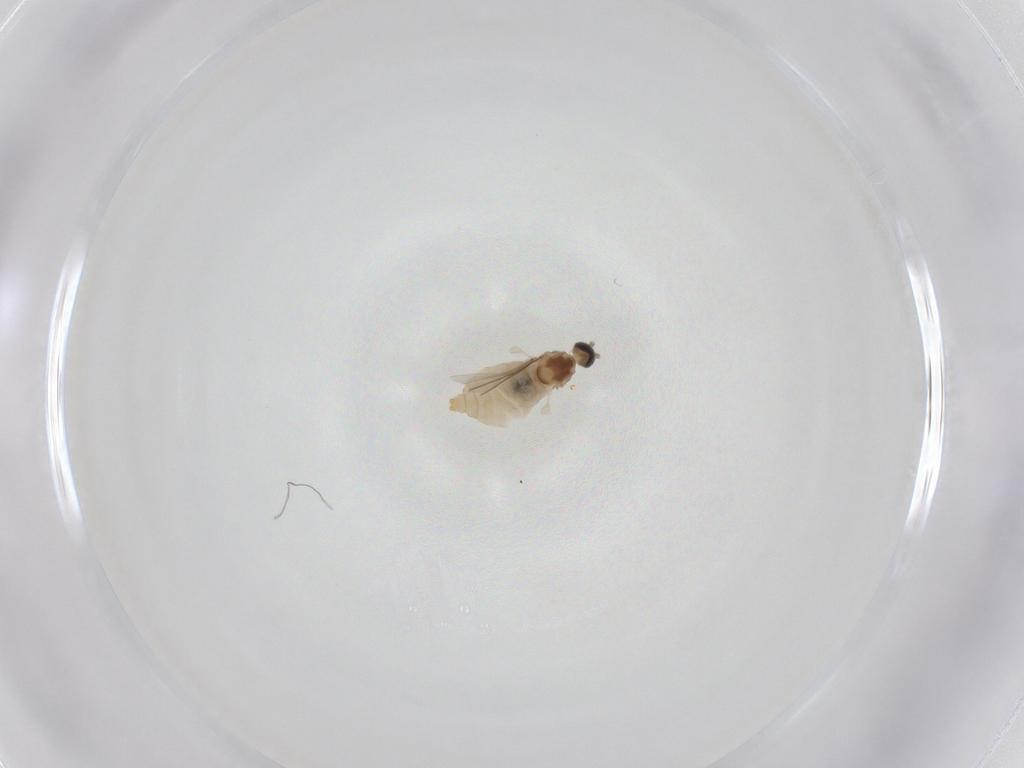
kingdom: Animalia
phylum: Arthropoda
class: Insecta
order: Diptera
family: Cecidomyiidae
